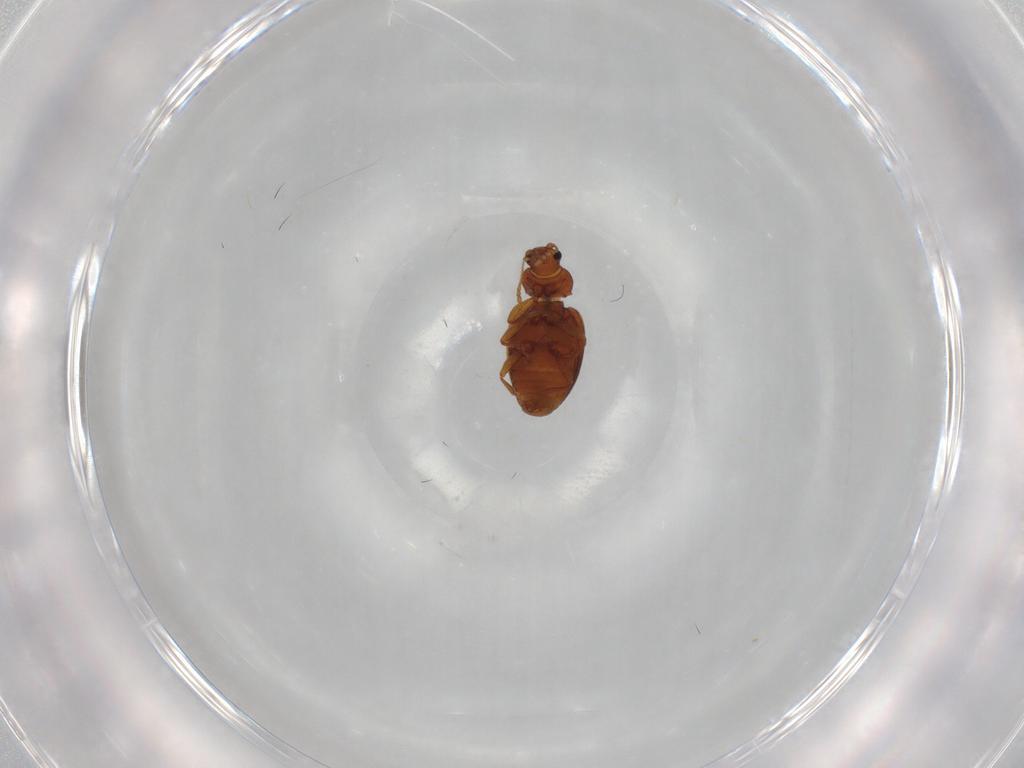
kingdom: Animalia
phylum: Arthropoda
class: Insecta
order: Coleoptera
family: Latridiidae
